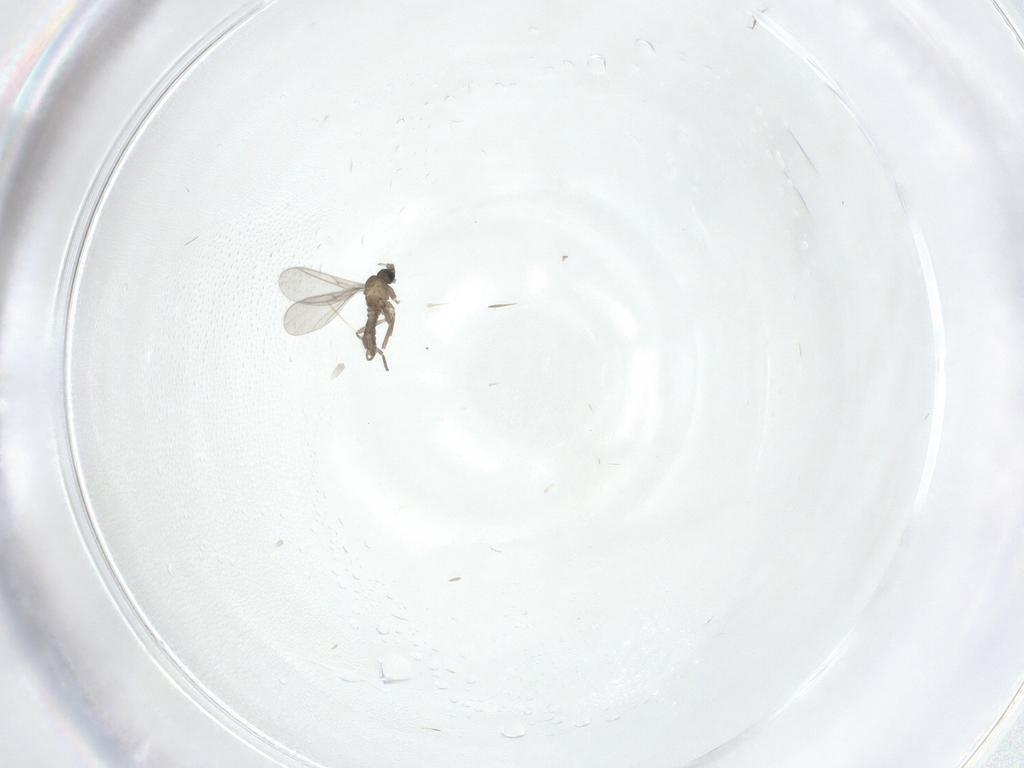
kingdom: Animalia
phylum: Arthropoda
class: Insecta
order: Diptera
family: Sciaridae
